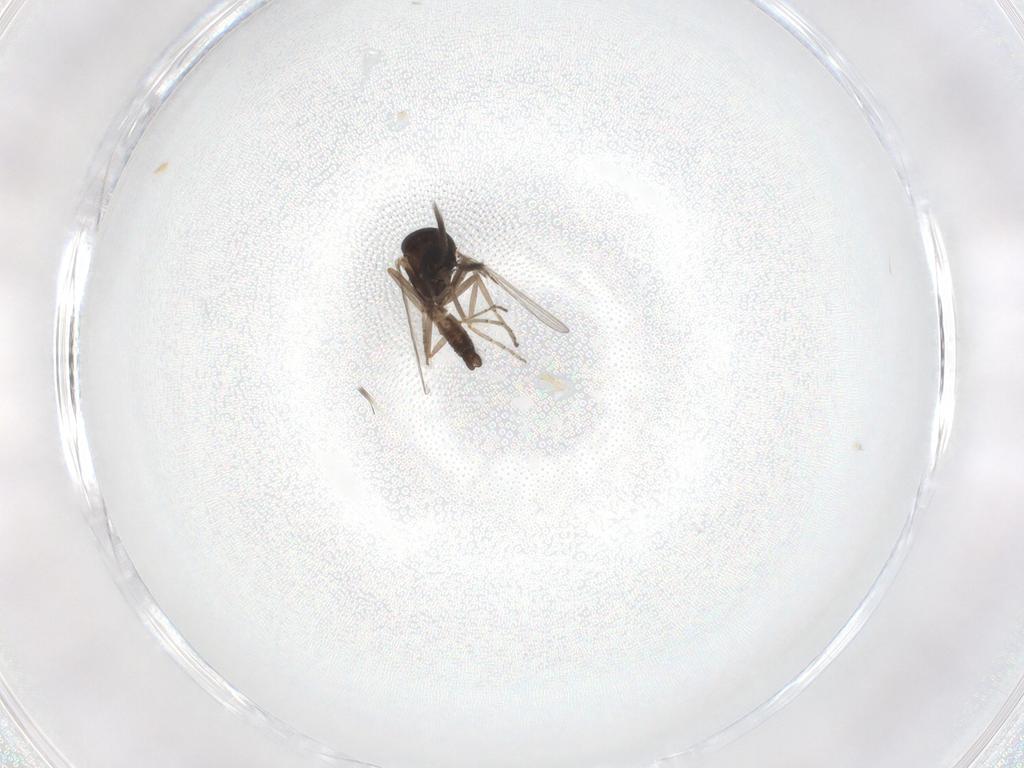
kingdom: Animalia
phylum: Arthropoda
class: Insecta
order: Diptera
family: Ceratopogonidae
